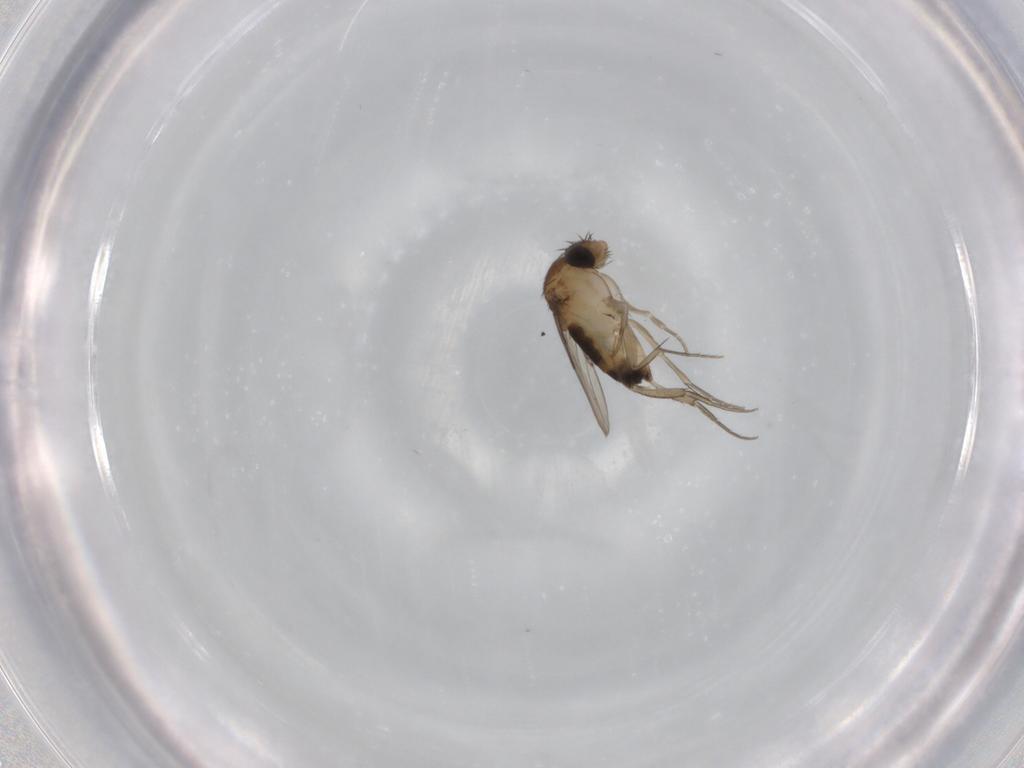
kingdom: Animalia
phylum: Arthropoda
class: Insecta
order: Diptera
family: Phoridae
